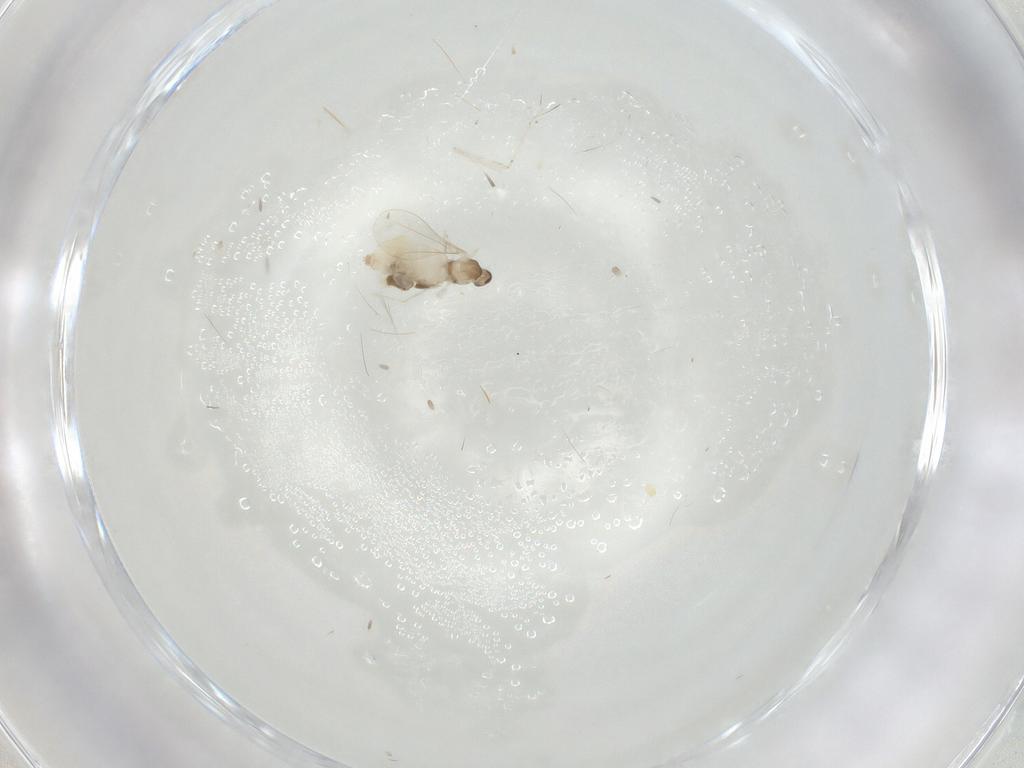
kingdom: Animalia
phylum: Arthropoda
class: Insecta
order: Diptera
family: Cecidomyiidae
